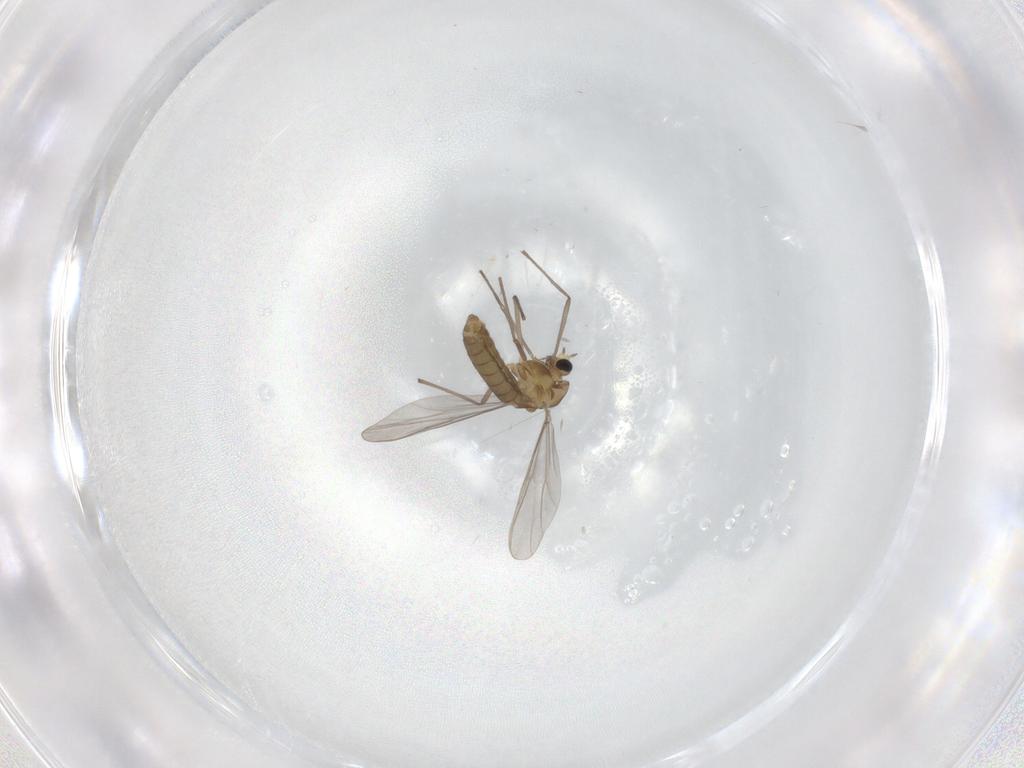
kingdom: Animalia
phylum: Arthropoda
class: Insecta
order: Diptera
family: Chironomidae
